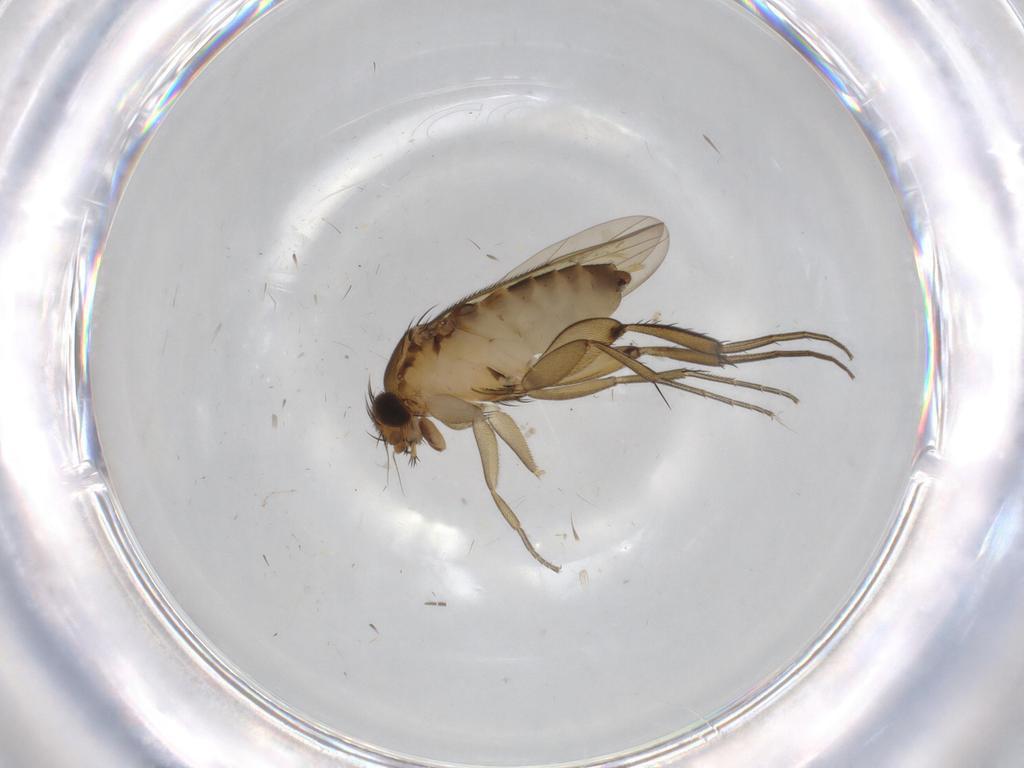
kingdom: Animalia
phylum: Arthropoda
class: Insecta
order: Diptera
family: Phoridae
